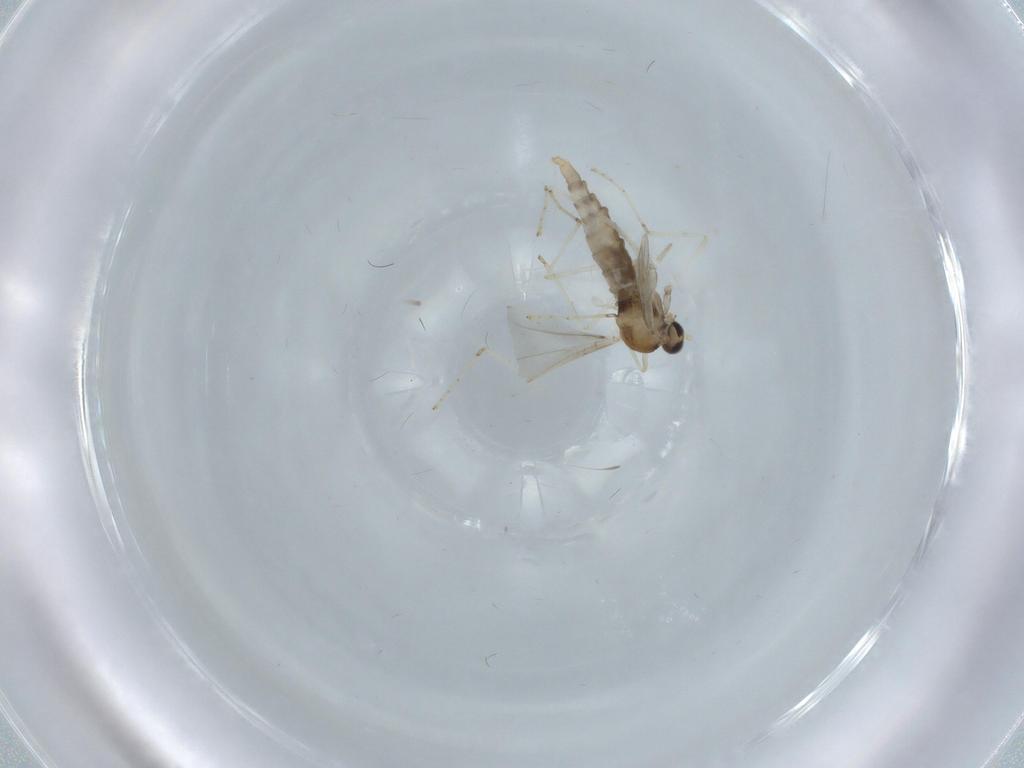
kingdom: Animalia
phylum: Arthropoda
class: Insecta
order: Diptera
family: Cecidomyiidae
